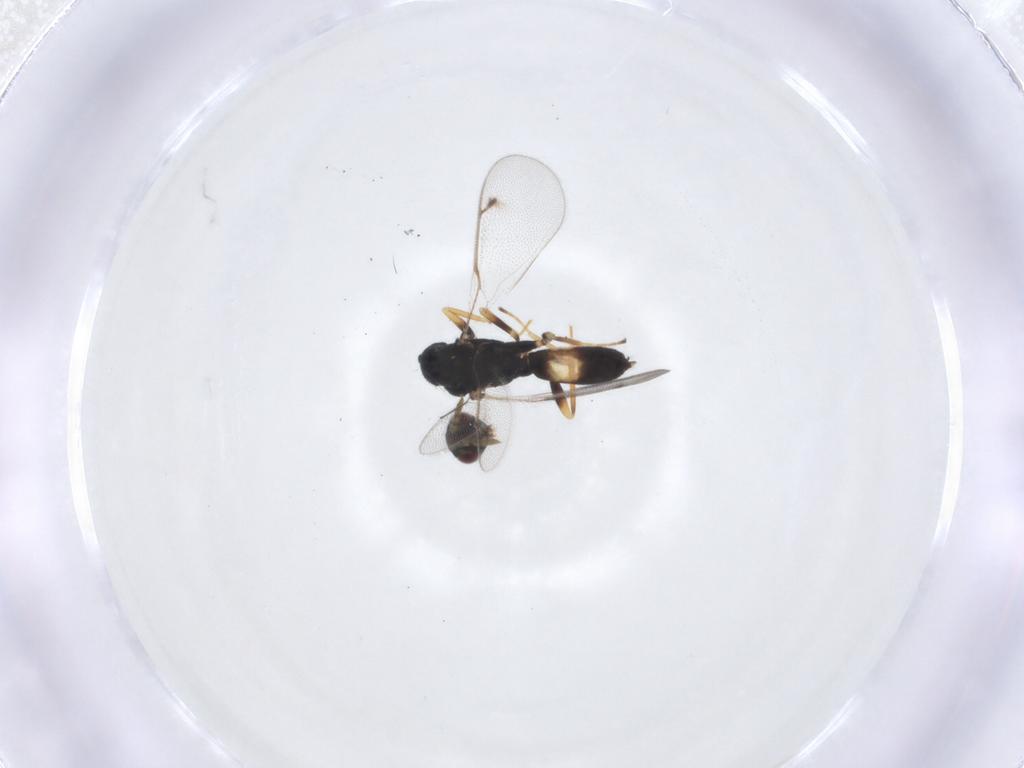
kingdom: Animalia
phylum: Arthropoda
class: Insecta
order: Hymenoptera
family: Eulophidae
